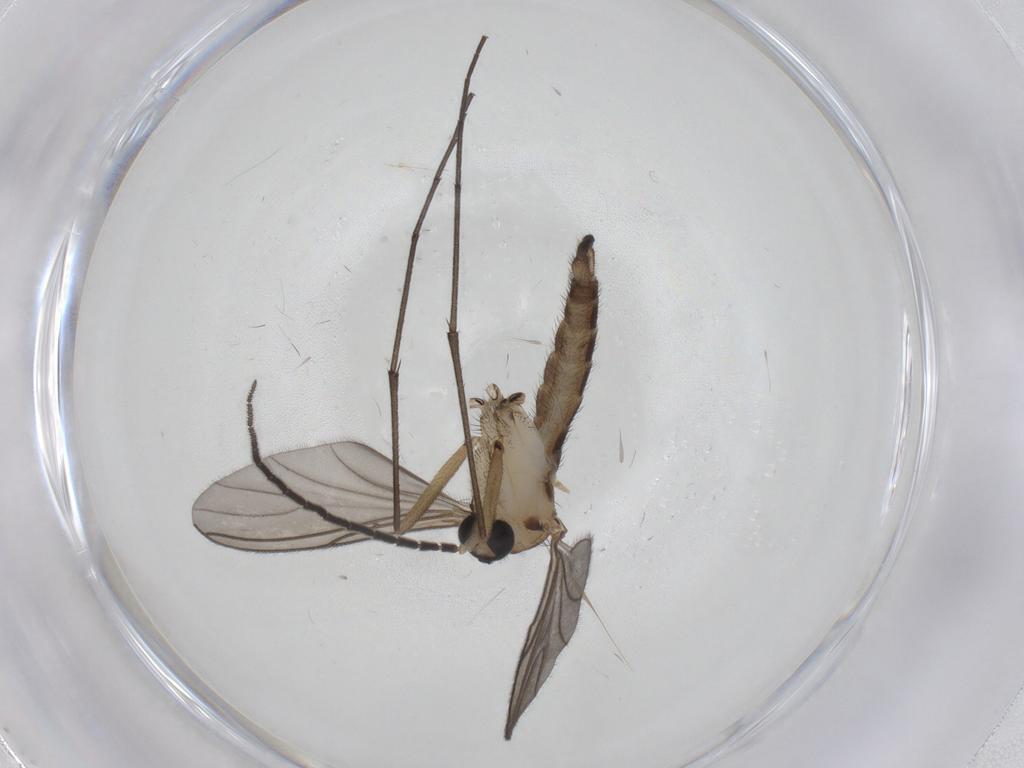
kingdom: Animalia
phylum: Arthropoda
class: Insecta
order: Diptera
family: Sciaridae
